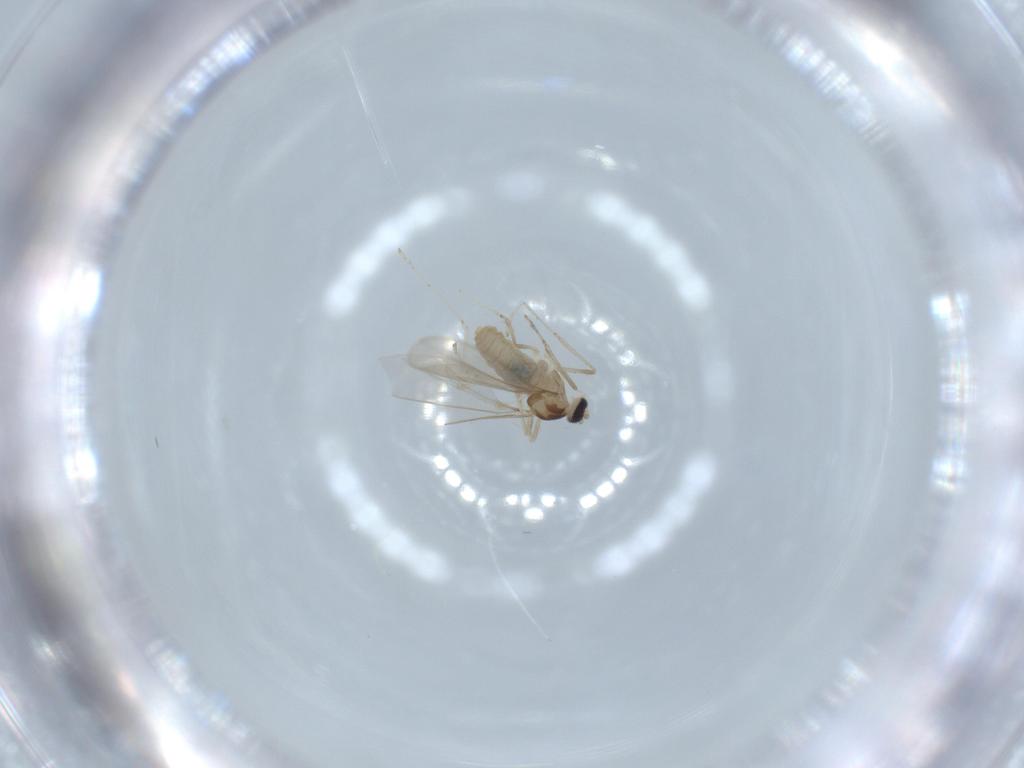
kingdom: Animalia
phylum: Arthropoda
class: Insecta
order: Diptera
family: Cecidomyiidae
